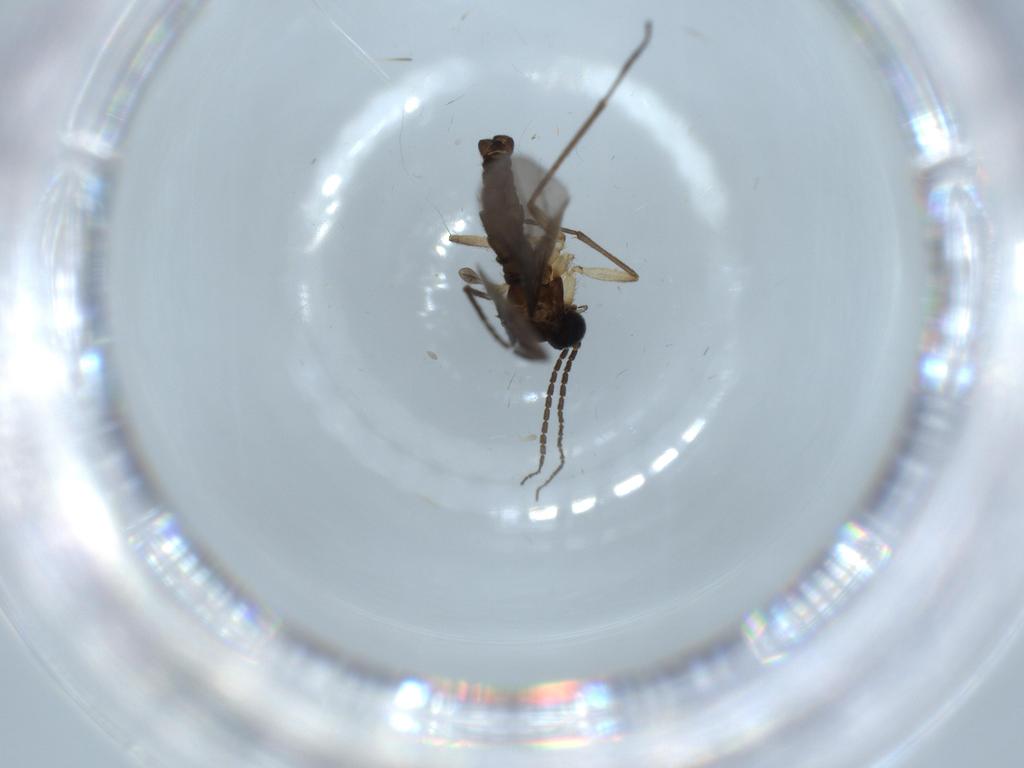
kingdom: Animalia
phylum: Arthropoda
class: Insecta
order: Diptera
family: Sciaridae
